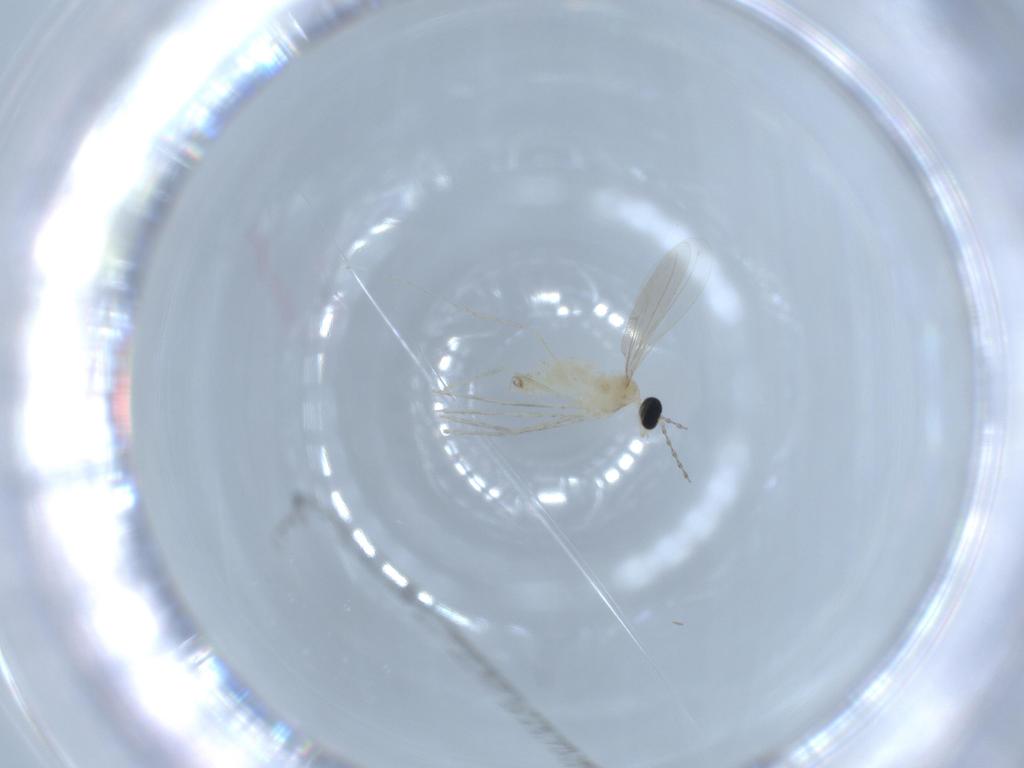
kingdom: Animalia
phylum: Arthropoda
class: Insecta
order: Diptera
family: Cecidomyiidae
